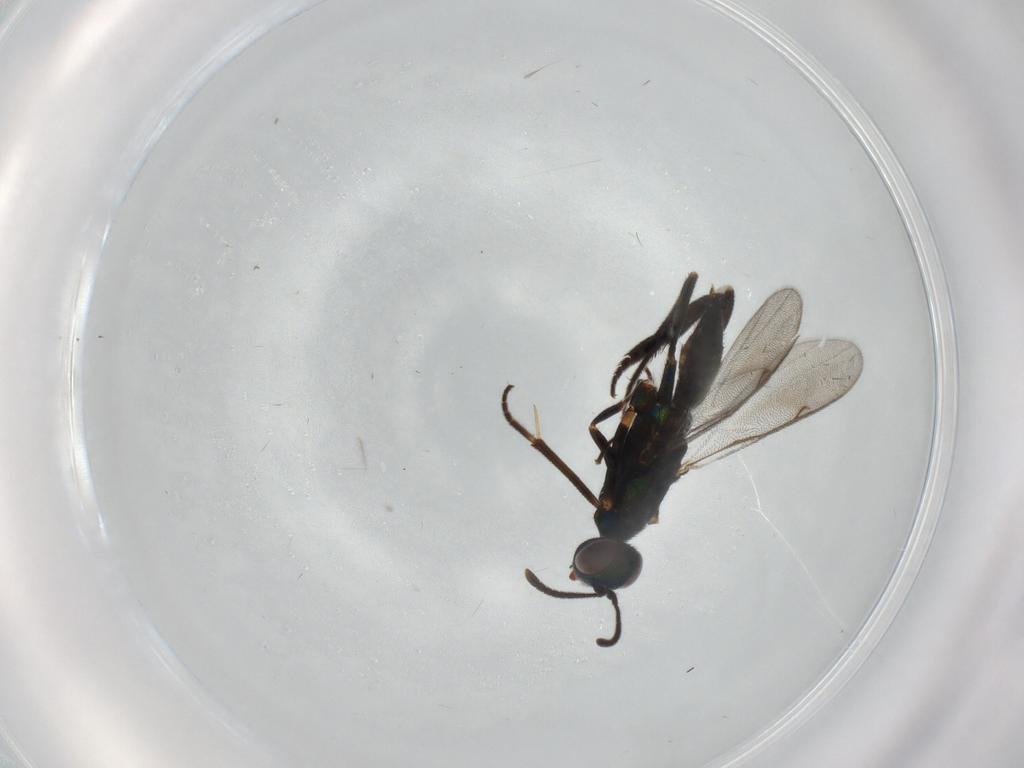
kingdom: Animalia
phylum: Arthropoda
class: Insecta
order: Hymenoptera
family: Eupelmidae
